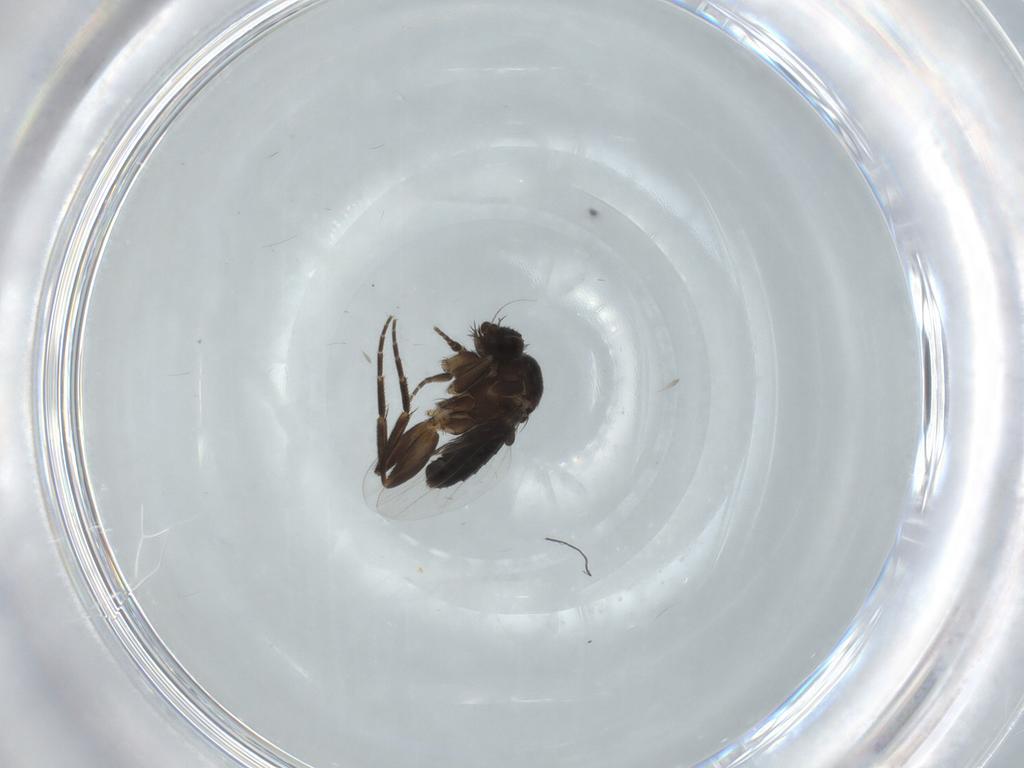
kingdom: Animalia
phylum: Arthropoda
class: Insecta
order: Diptera
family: Phoridae
